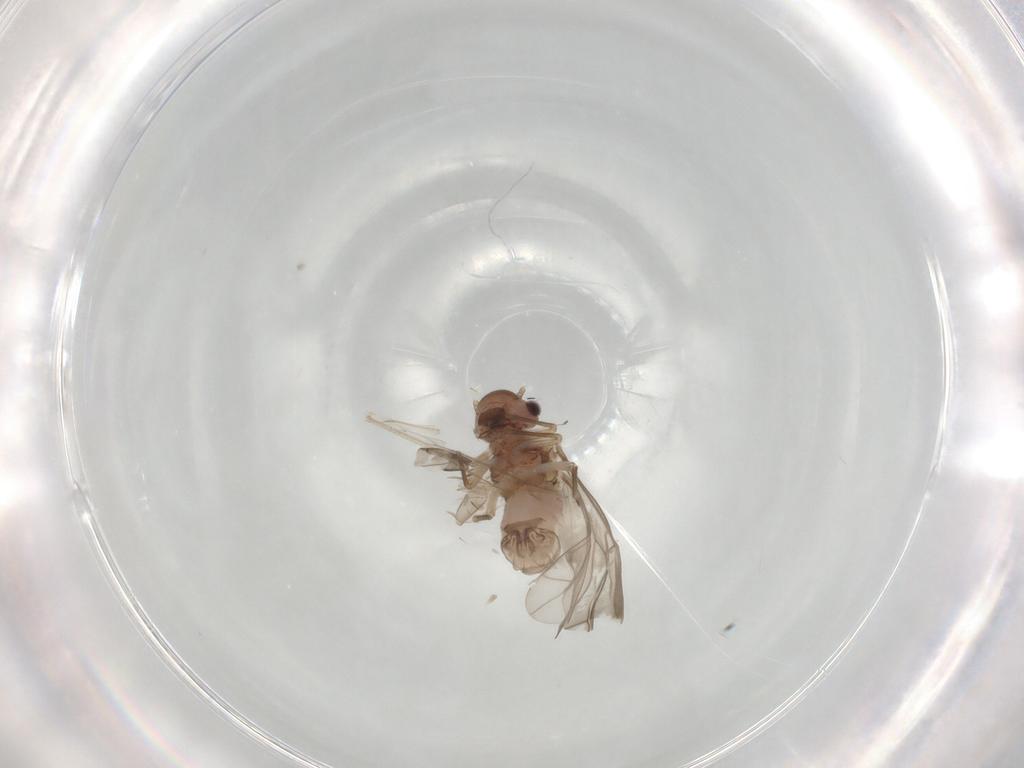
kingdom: Animalia
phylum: Arthropoda
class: Insecta
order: Psocodea
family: Peripsocidae
